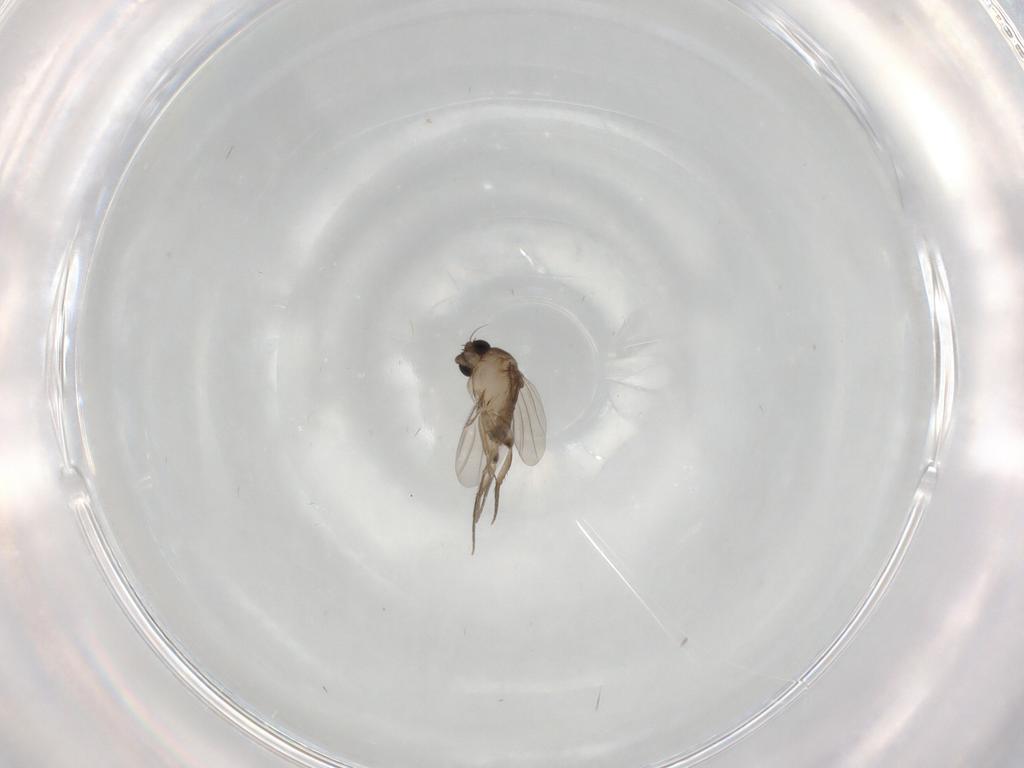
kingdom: Animalia
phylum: Arthropoda
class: Insecta
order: Diptera
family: Phoridae
